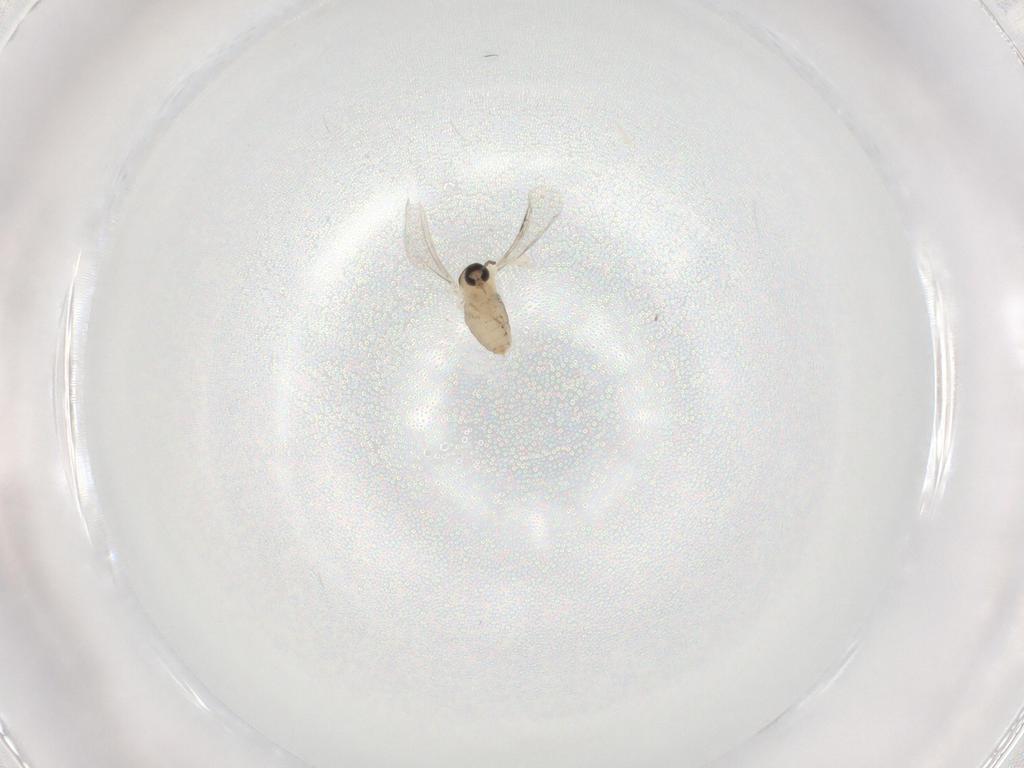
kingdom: Animalia
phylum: Arthropoda
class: Insecta
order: Diptera
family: Cecidomyiidae
